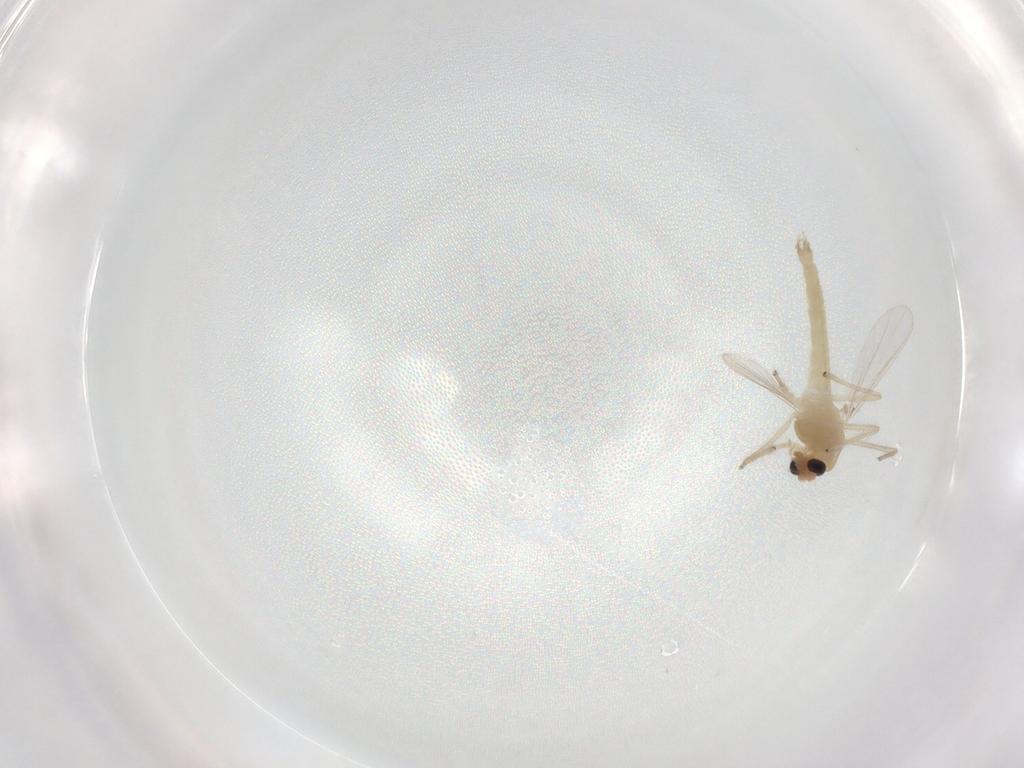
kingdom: Animalia
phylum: Arthropoda
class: Insecta
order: Diptera
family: Chironomidae
